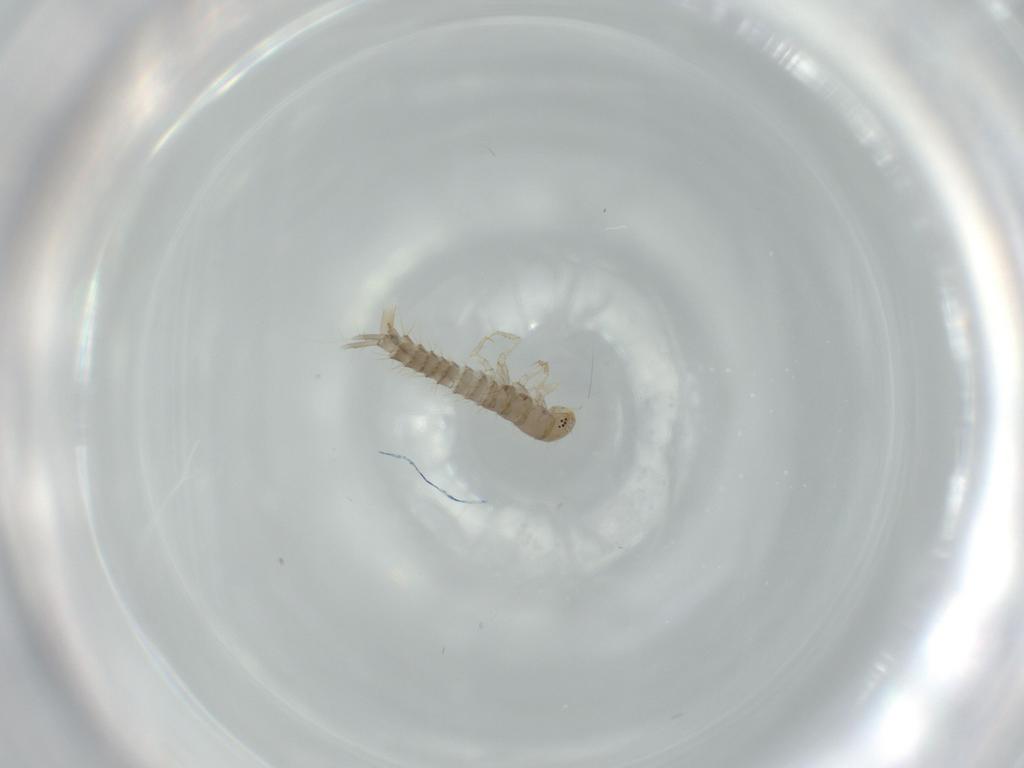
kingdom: Animalia
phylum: Arthropoda
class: Insecta
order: Coleoptera
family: Staphylinidae
